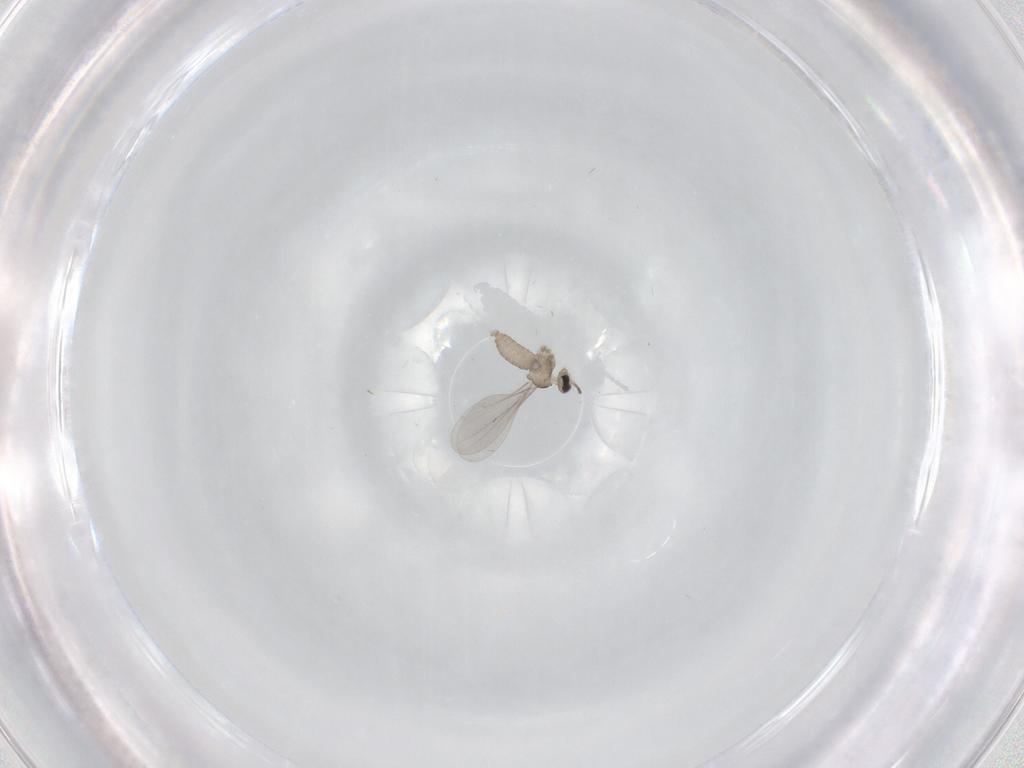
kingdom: Animalia
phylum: Arthropoda
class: Insecta
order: Diptera
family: Cecidomyiidae
